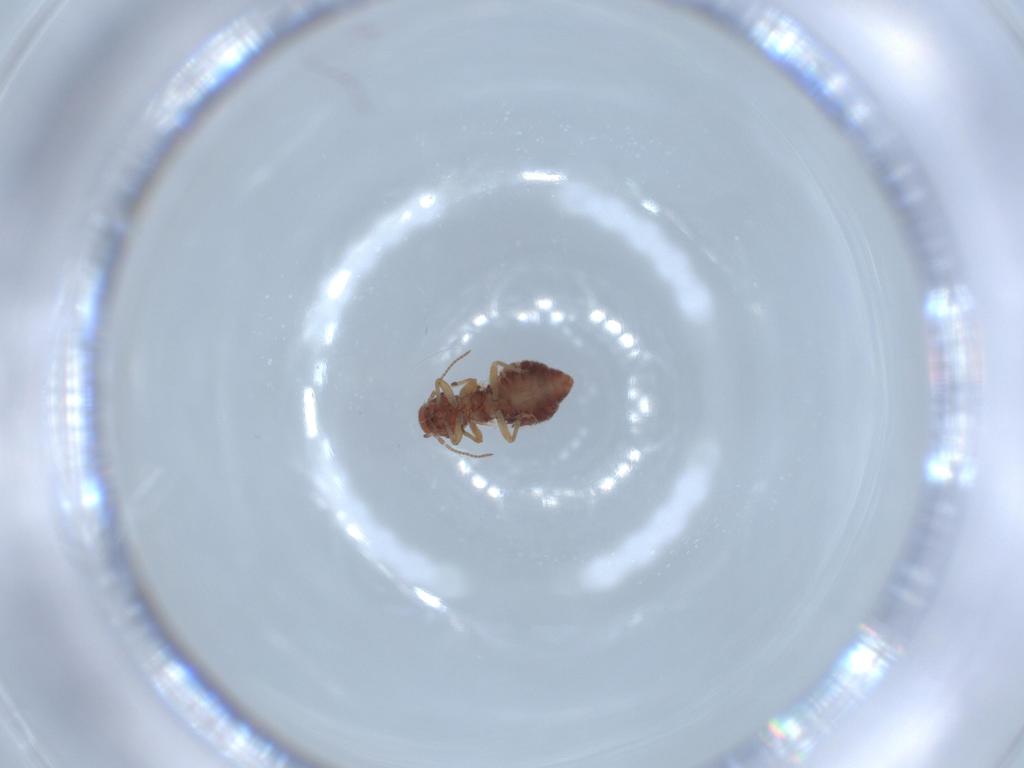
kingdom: Animalia
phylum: Arthropoda
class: Insecta
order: Psocodea
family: Archipsocidae
